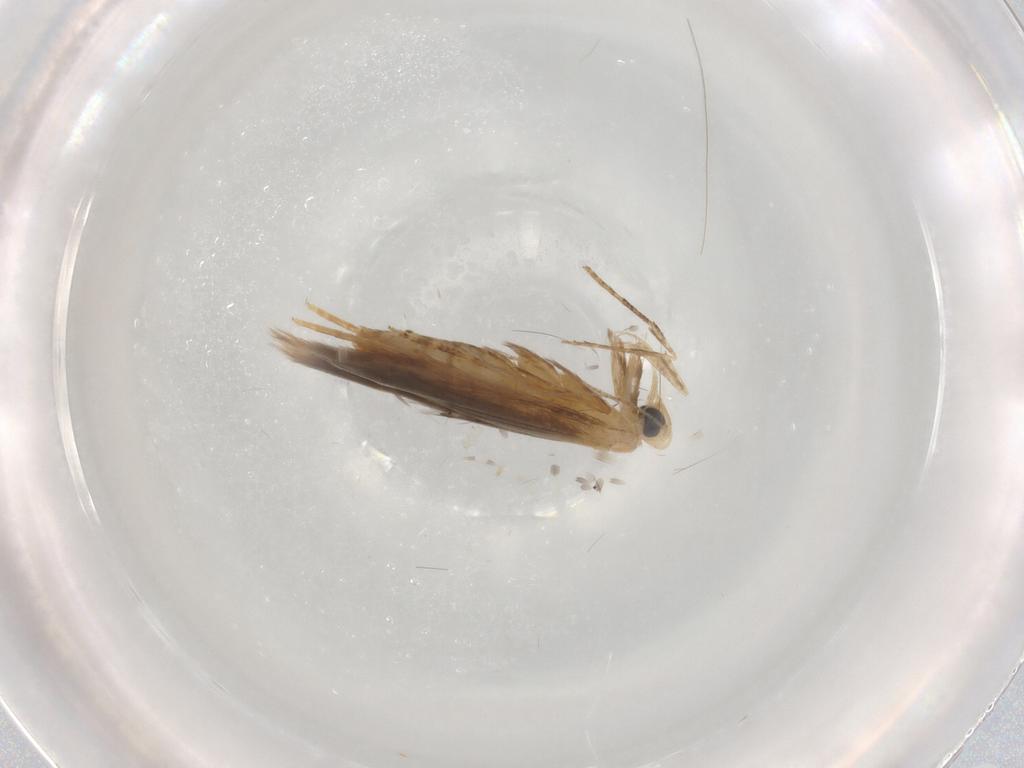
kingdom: Animalia
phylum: Arthropoda
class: Insecta
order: Lepidoptera
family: Tischeriidae
